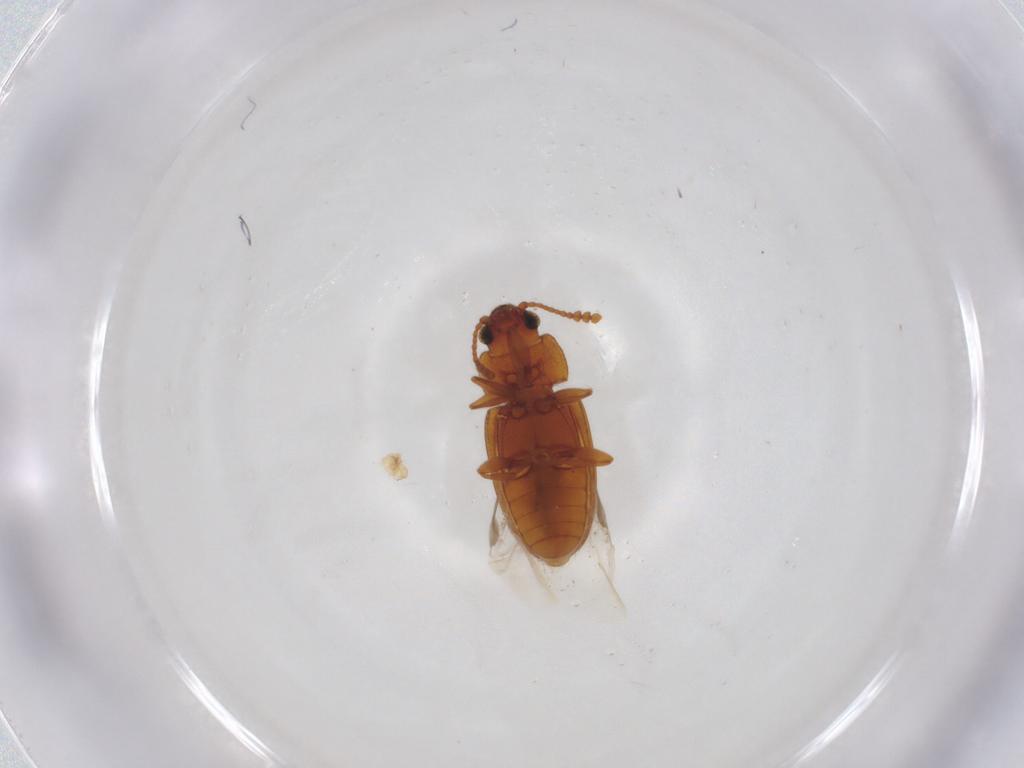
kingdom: Animalia
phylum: Arthropoda
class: Insecta
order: Coleoptera
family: Erotylidae
